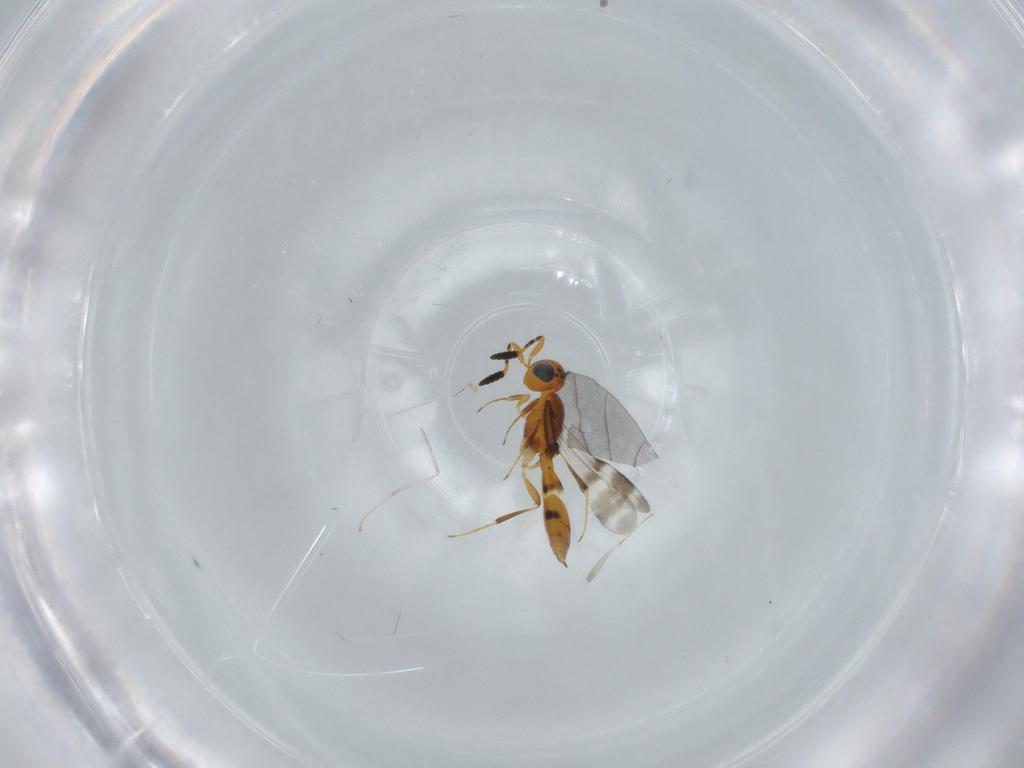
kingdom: Animalia
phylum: Arthropoda
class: Insecta
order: Hymenoptera
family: Scelionidae
